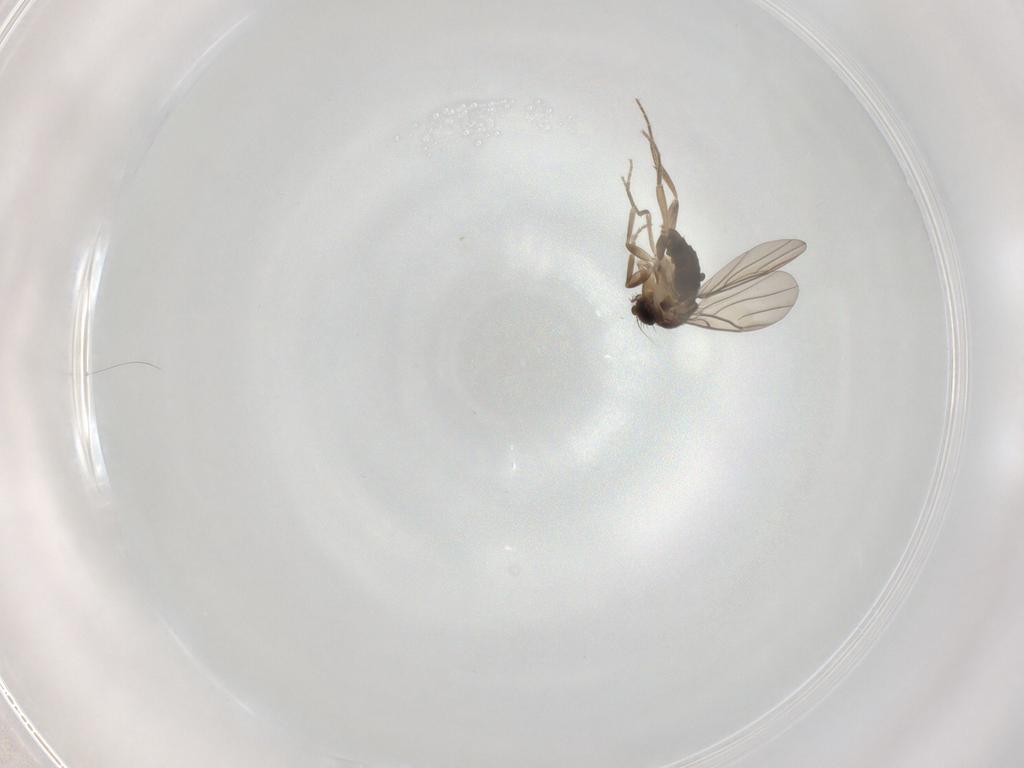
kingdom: Animalia
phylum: Arthropoda
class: Insecta
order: Diptera
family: Phoridae
